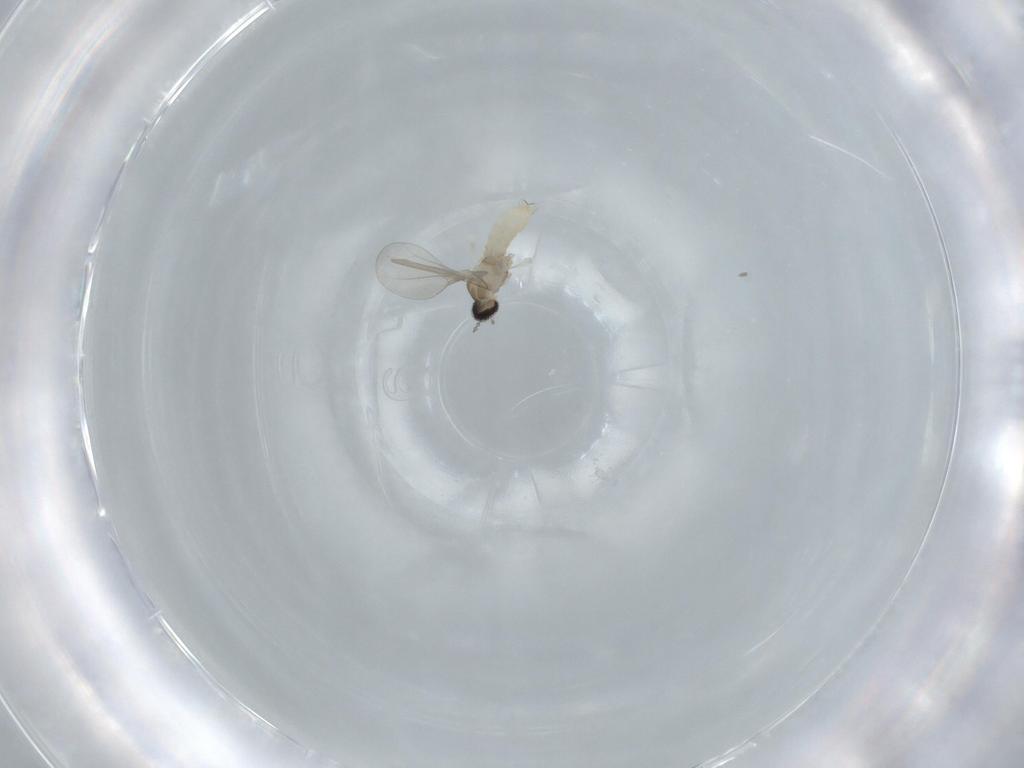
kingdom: Animalia
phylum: Arthropoda
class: Insecta
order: Diptera
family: Cecidomyiidae
